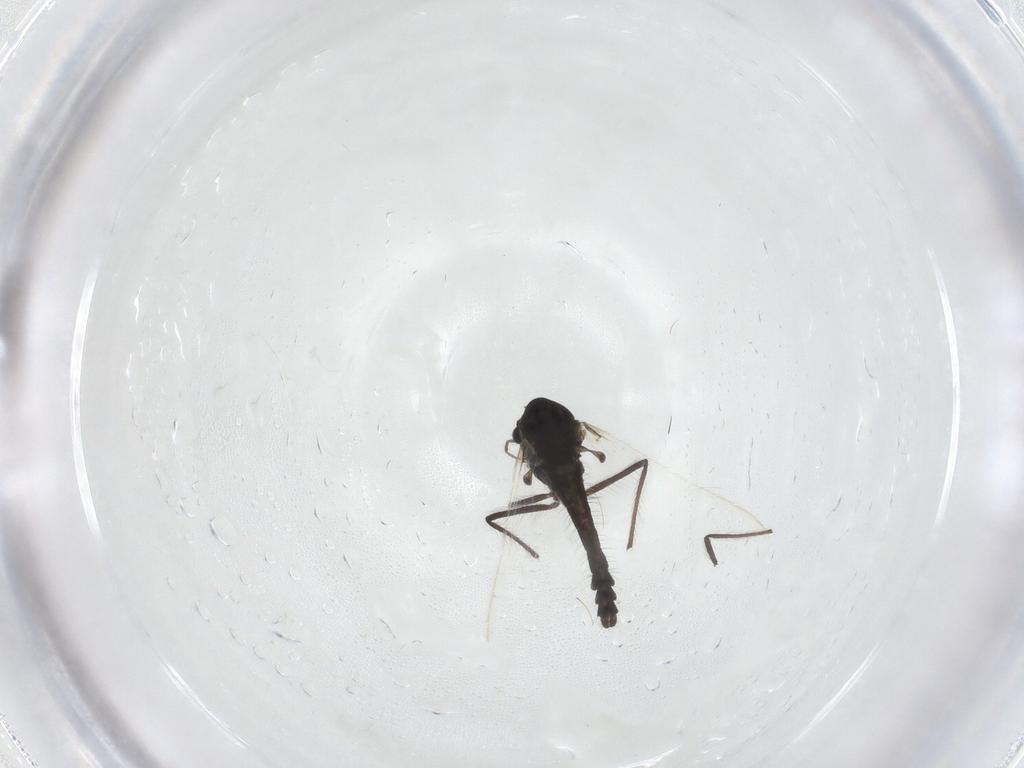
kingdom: Animalia
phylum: Arthropoda
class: Insecta
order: Diptera
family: Chironomidae
